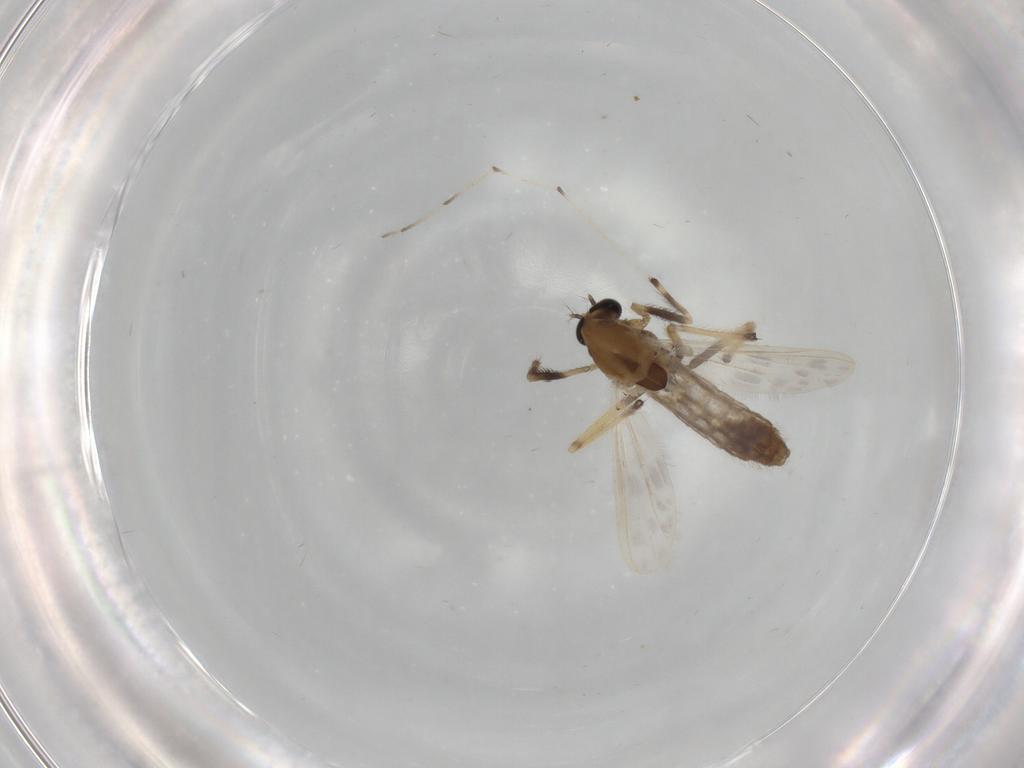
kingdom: Animalia
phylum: Arthropoda
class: Insecta
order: Diptera
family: Chironomidae
